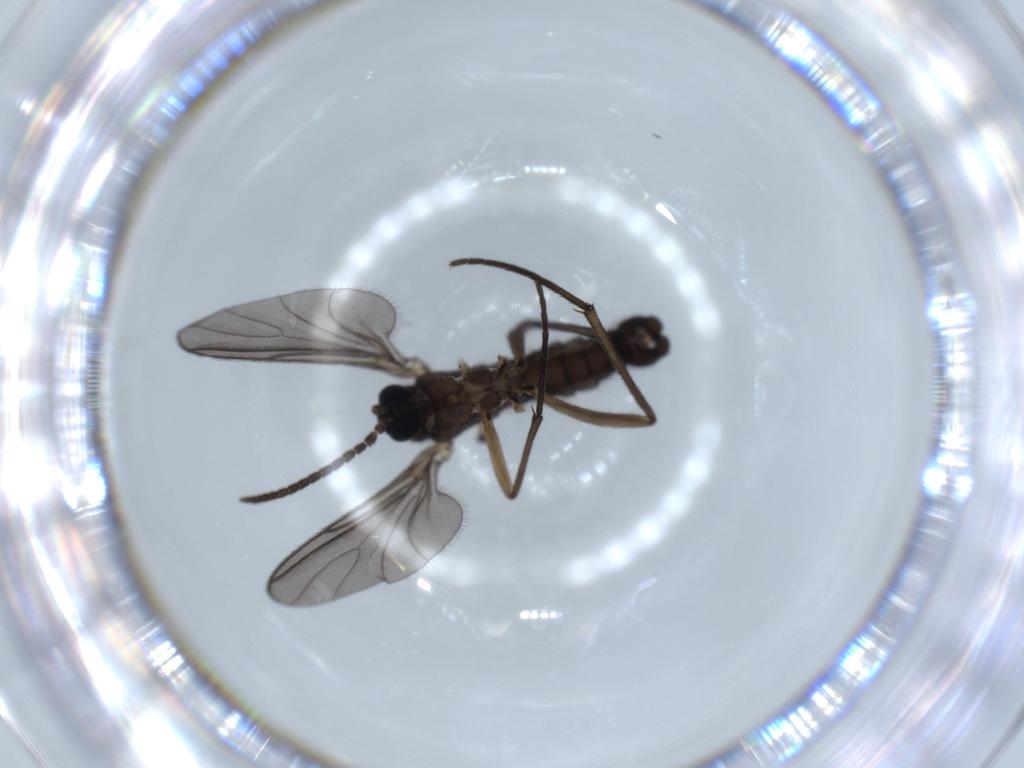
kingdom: Animalia
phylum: Arthropoda
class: Insecta
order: Diptera
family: Sciaridae
